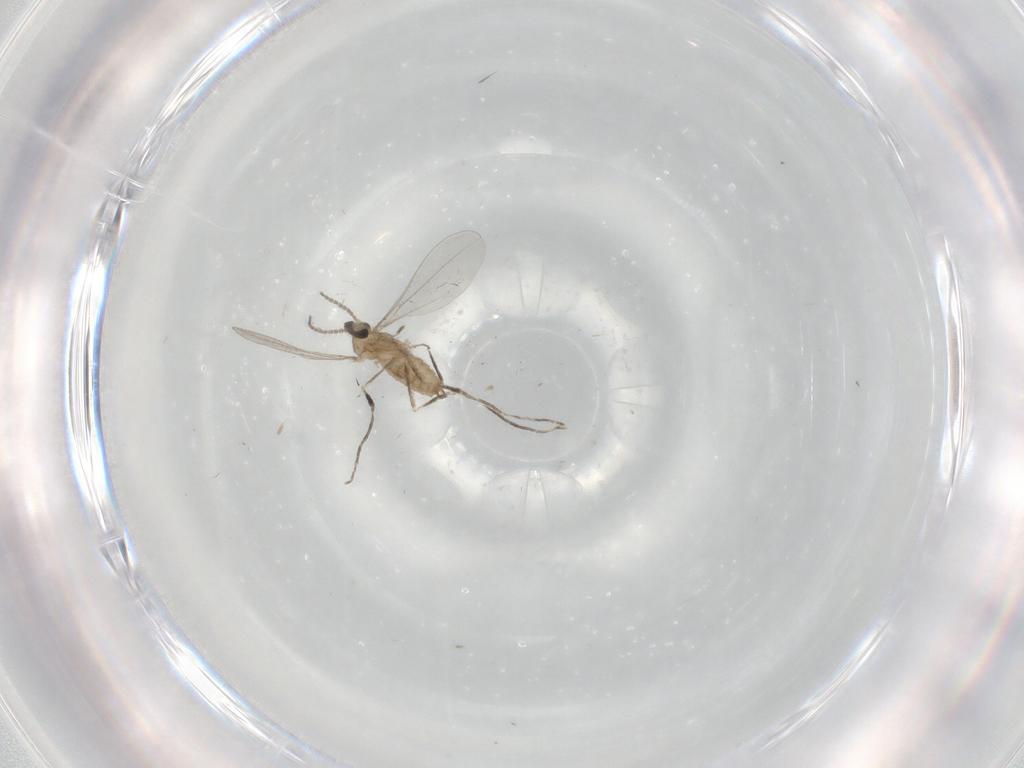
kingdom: Animalia
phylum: Arthropoda
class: Insecta
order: Diptera
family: Cecidomyiidae
